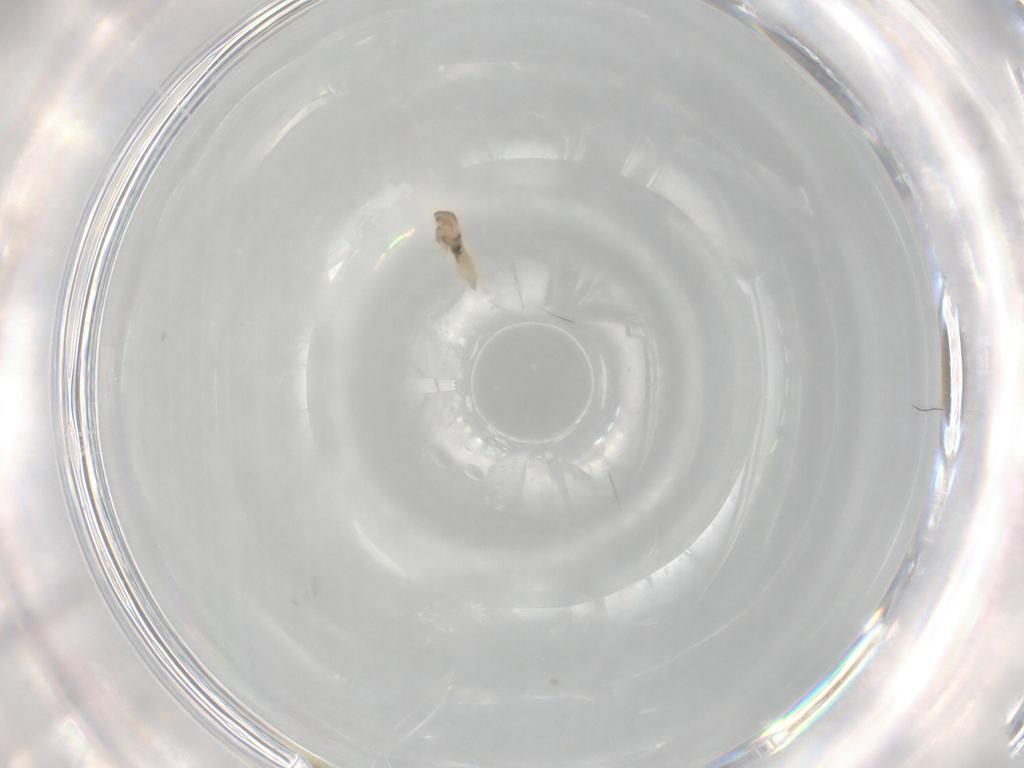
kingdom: Animalia
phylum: Arthropoda
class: Insecta
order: Diptera
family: Cecidomyiidae
